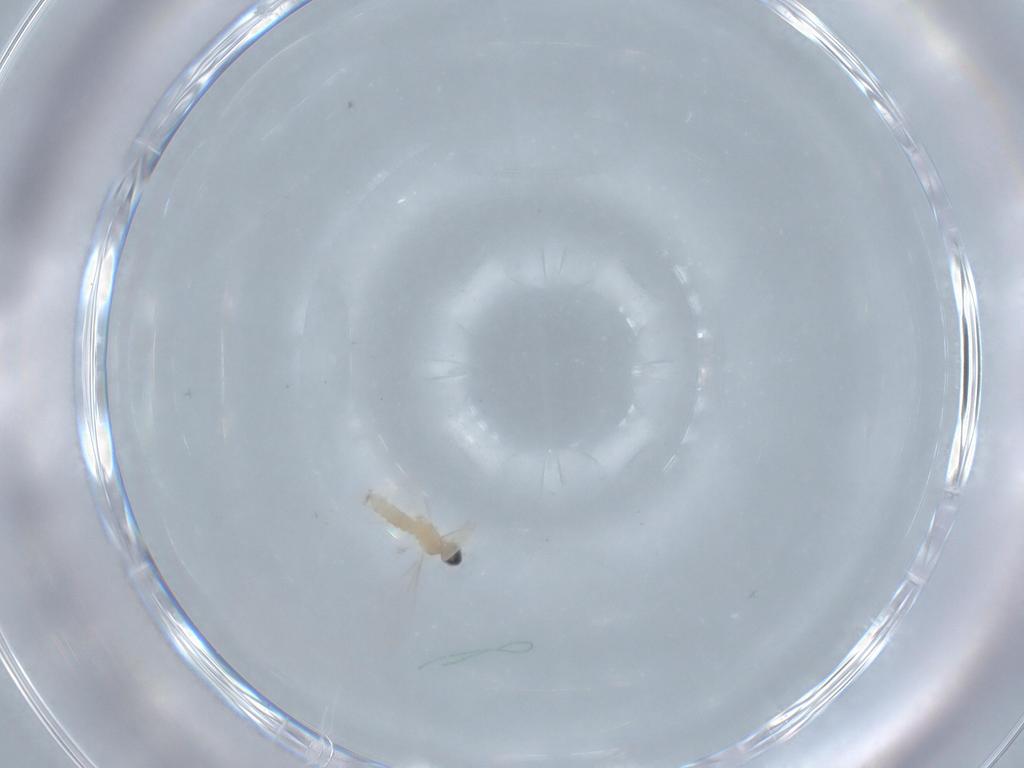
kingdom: Animalia
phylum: Arthropoda
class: Insecta
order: Diptera
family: Cecidomyiidae
